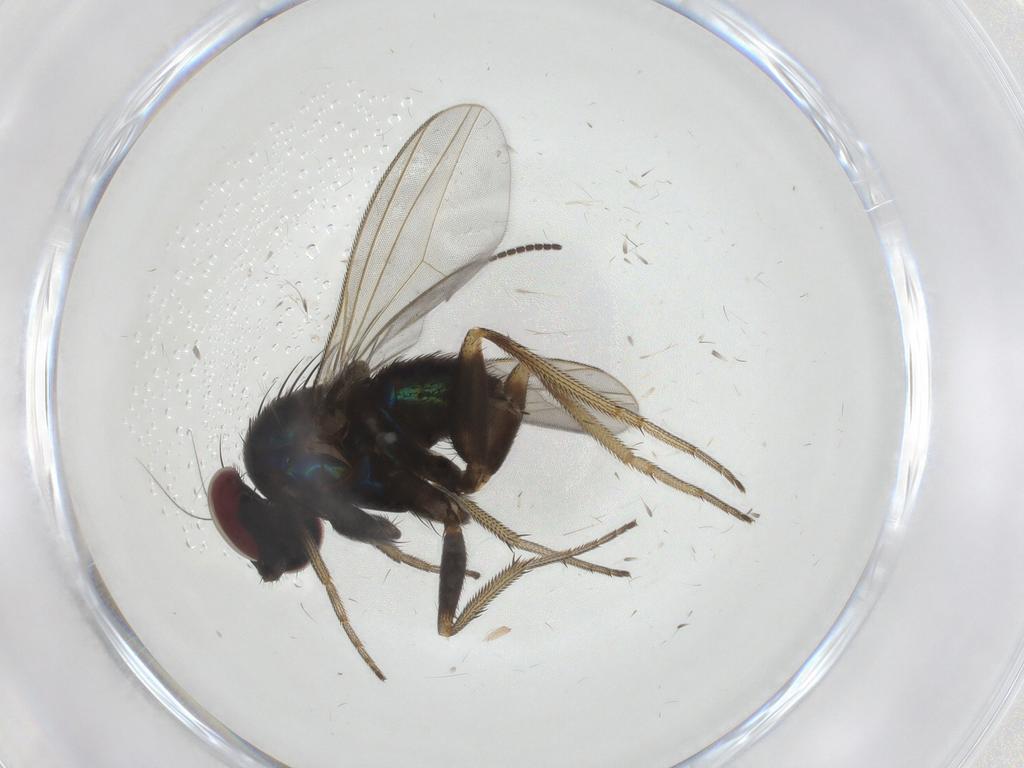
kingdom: Animalia
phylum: Arthropoda
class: Insecta
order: Diptera
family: Dolichopodidae
